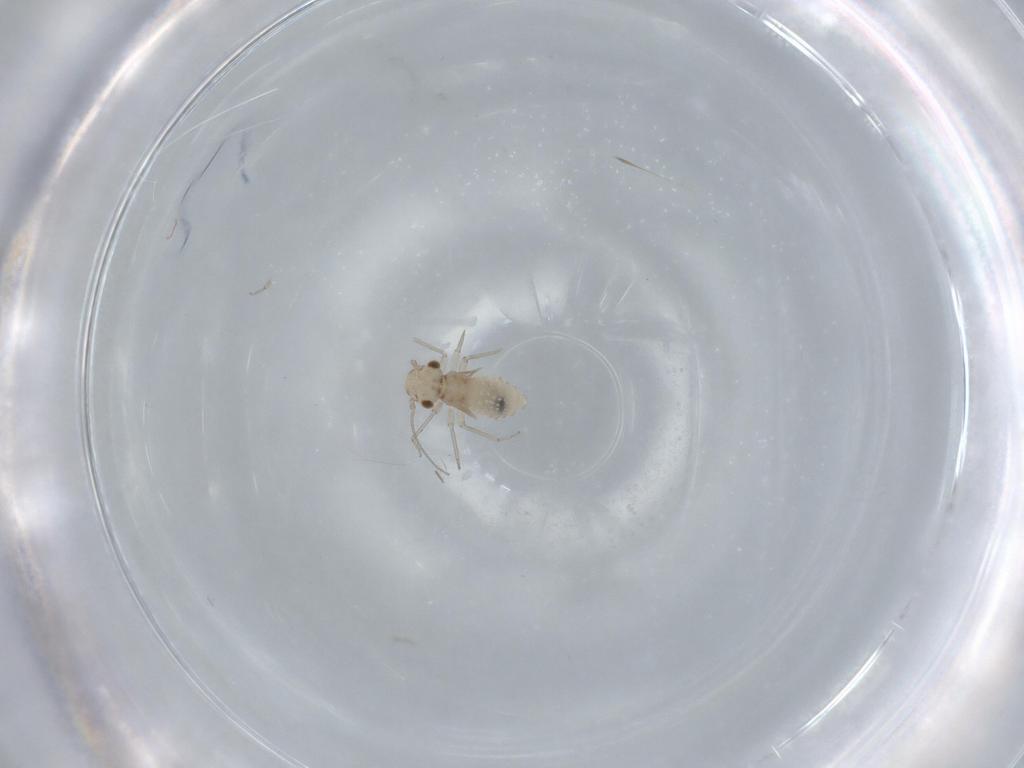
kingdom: Animalia
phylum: Arthropoda
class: Insecta
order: Psocodea
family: Lachesillidae
